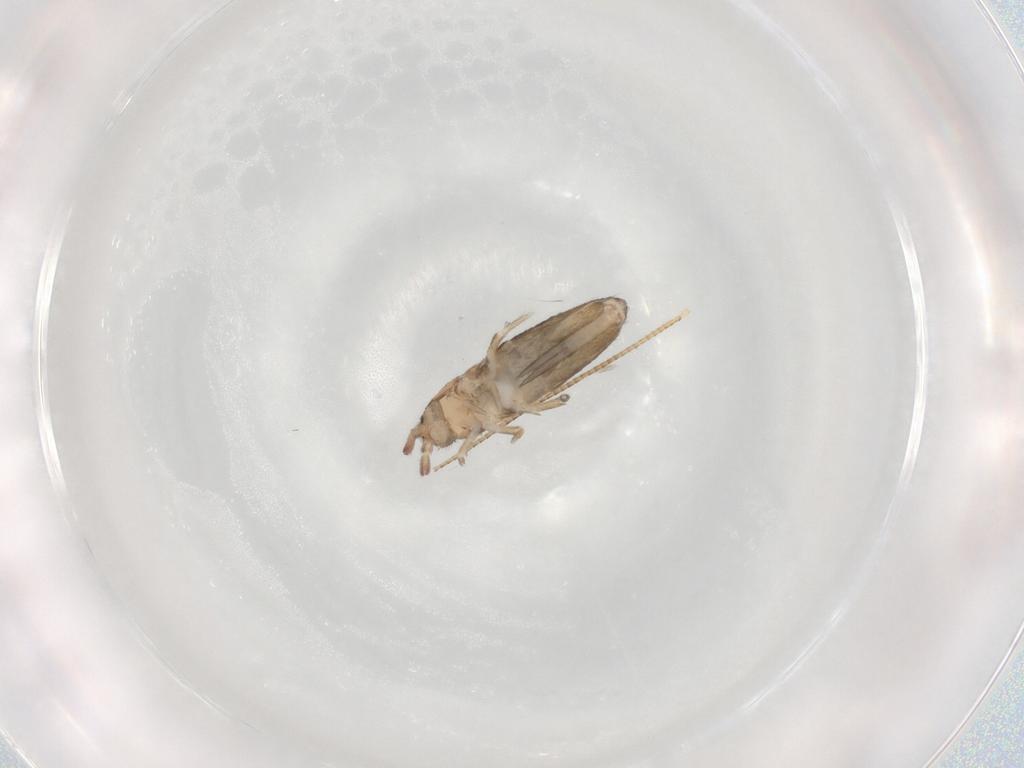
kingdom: Animalia
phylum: Arthropoda
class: Collembola
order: Entomobryomorpha
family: Entomobryidae
